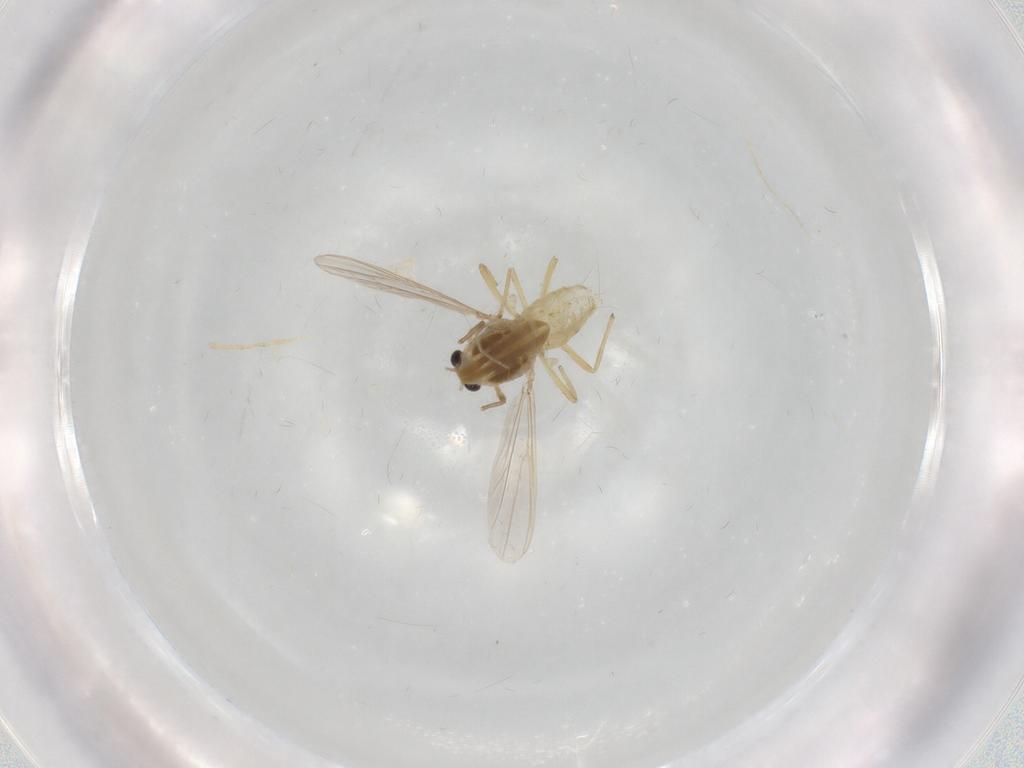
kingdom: Animalia
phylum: Arthropoda
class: Insecta
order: Diptera
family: Chironomidae
